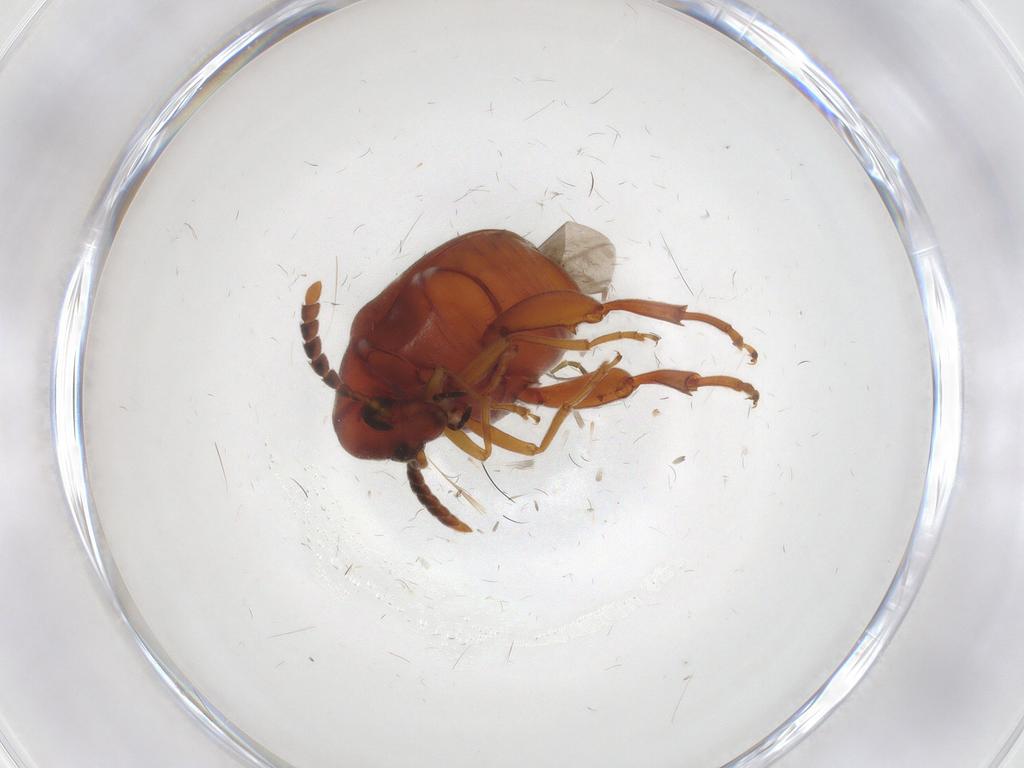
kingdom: Animalia
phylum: Arthropoda
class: Insecta
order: Coleoptera
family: Chrysomelidae
